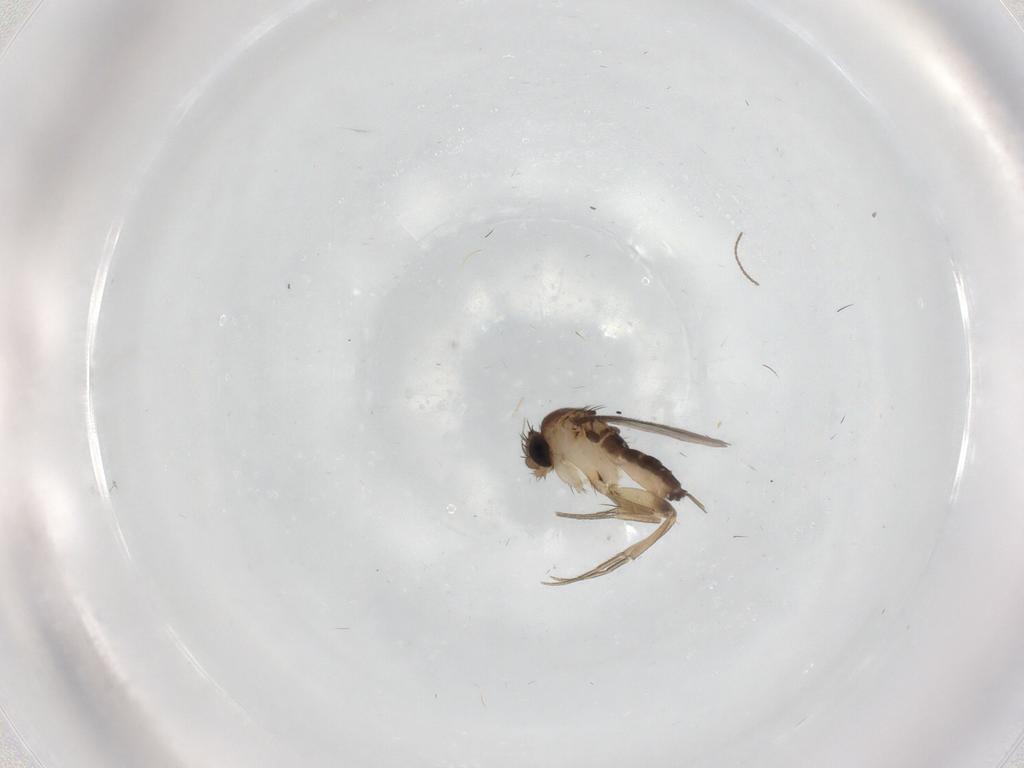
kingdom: Animalia
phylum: Arthropoda
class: Insecta
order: Diptera
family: Phoridae
